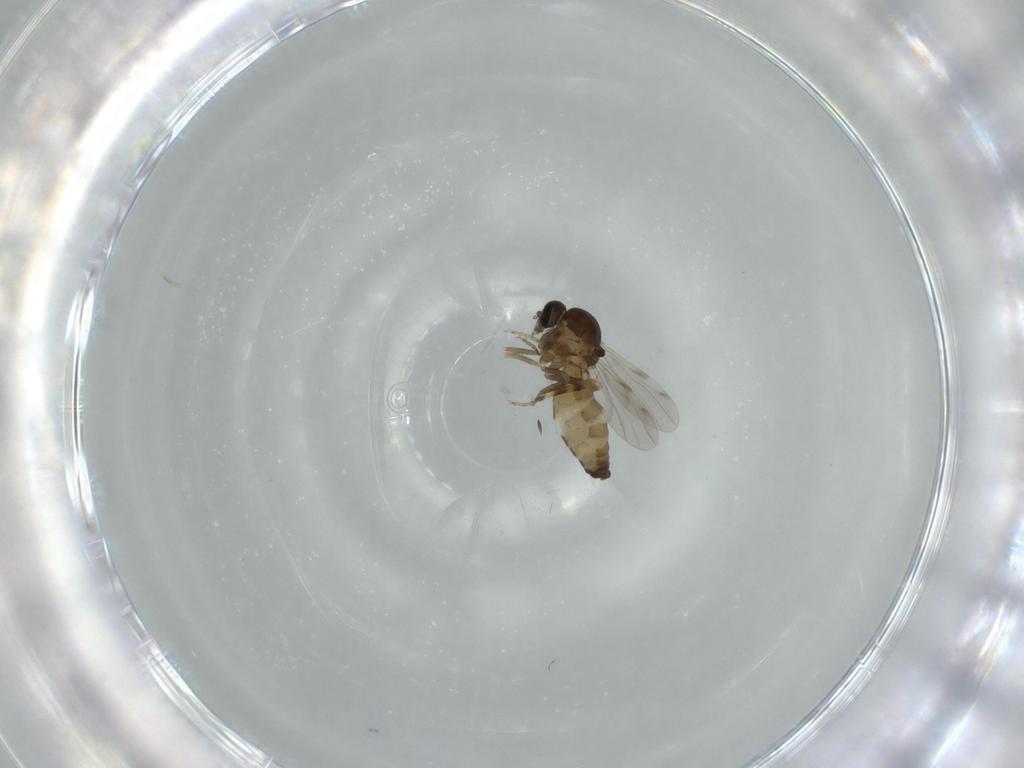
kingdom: Animalia
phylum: Arthropoda
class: Insecta
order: Diptera
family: Ceratopogonidae
